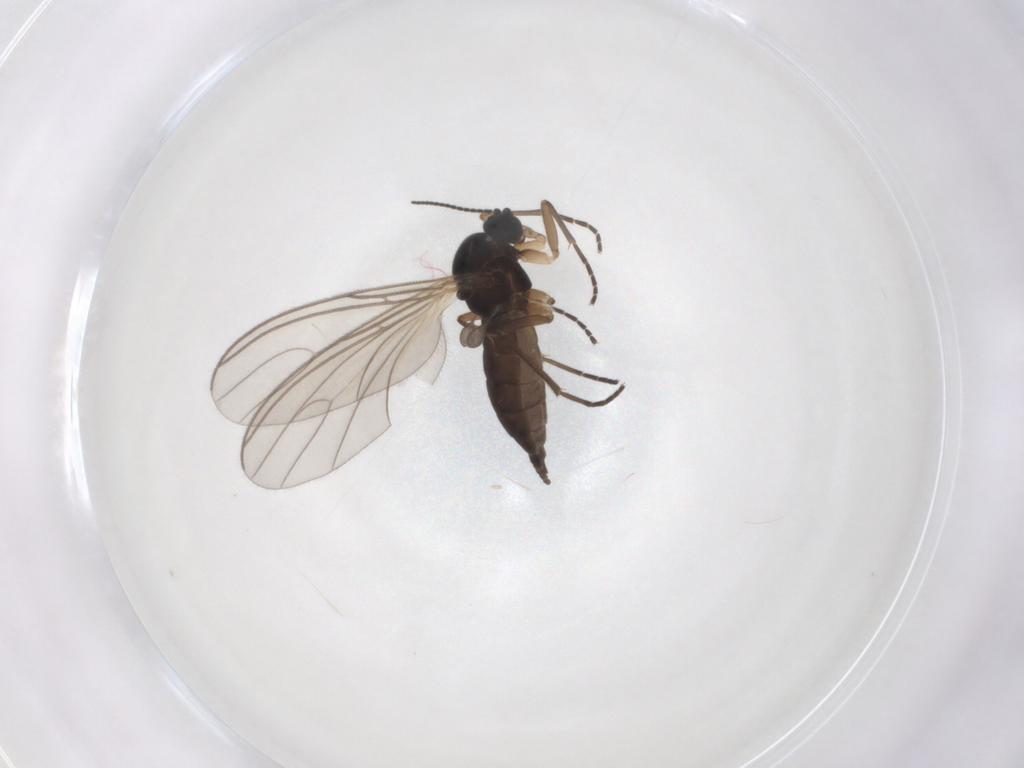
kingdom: Animalia
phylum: Arthropoda
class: Insecta
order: Diptera
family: Sciaridae
